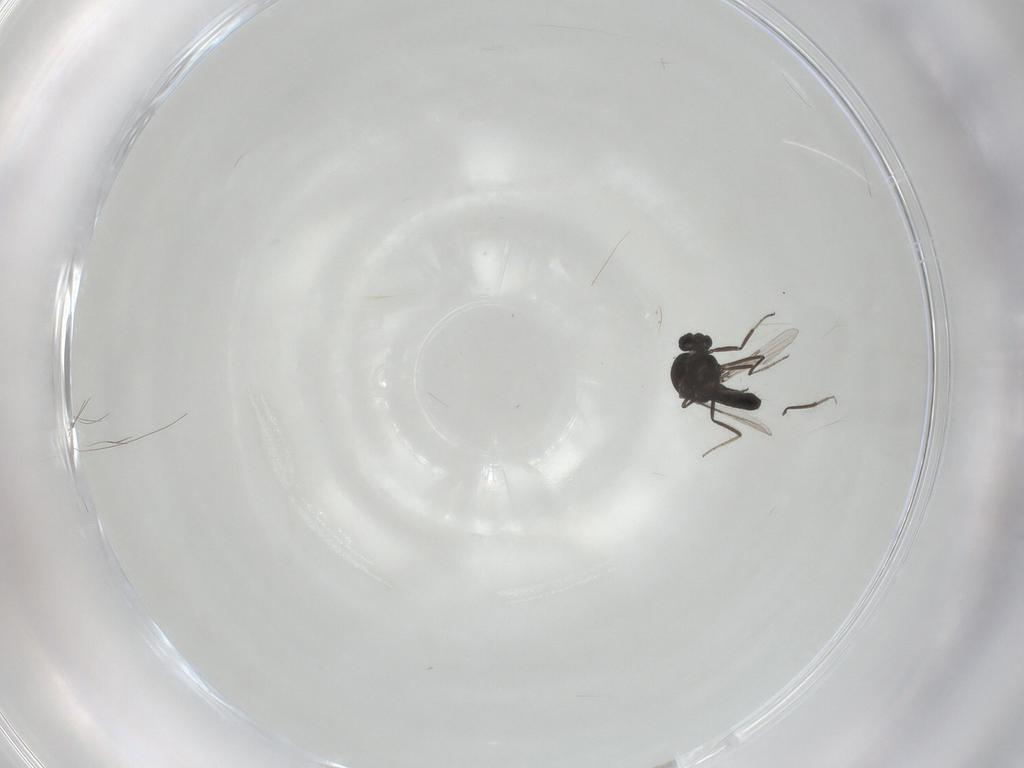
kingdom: Animalia
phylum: Arthropoda
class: Insecta
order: Diptera
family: Ceratopogonidae
